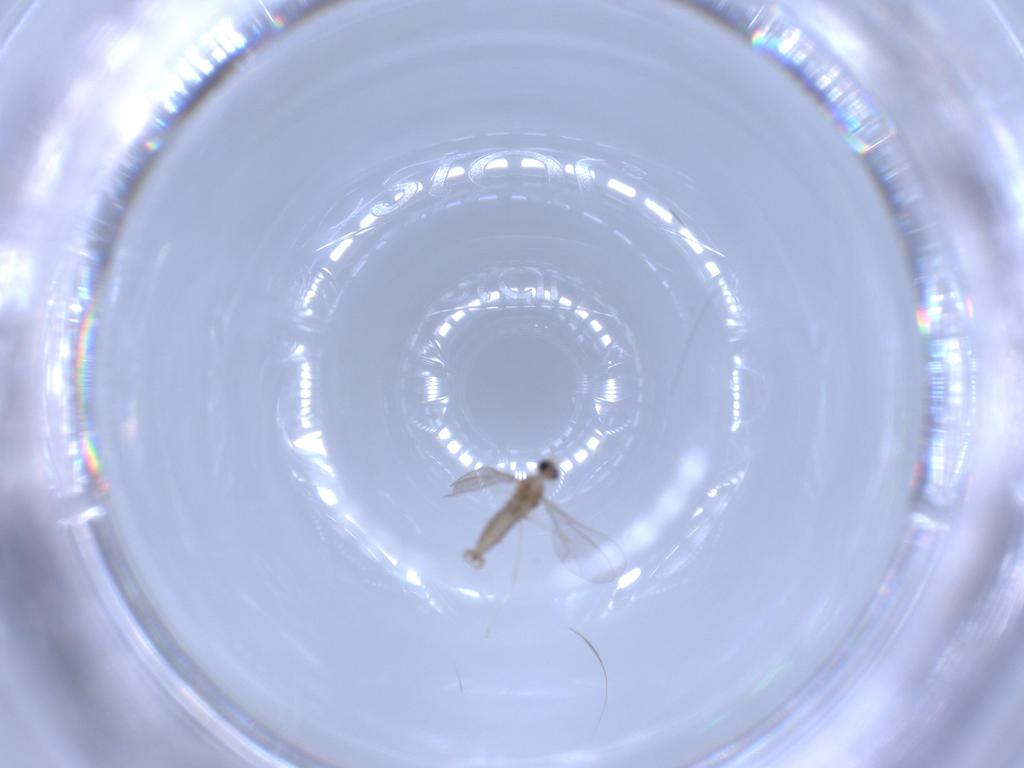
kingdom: Animalia
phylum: Arthropoda
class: Insecta
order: Diptera
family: Cecidomyiidae
